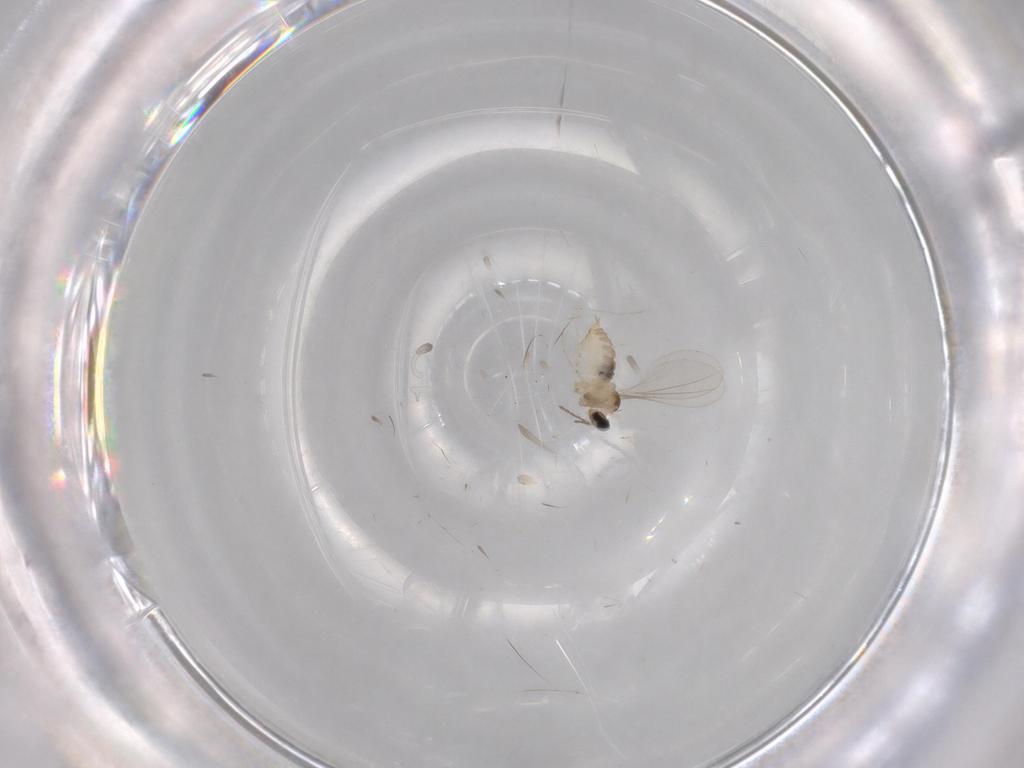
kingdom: Animalia
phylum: Arthropoda
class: Insecta
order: Diptera
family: Cecidomyiidae
